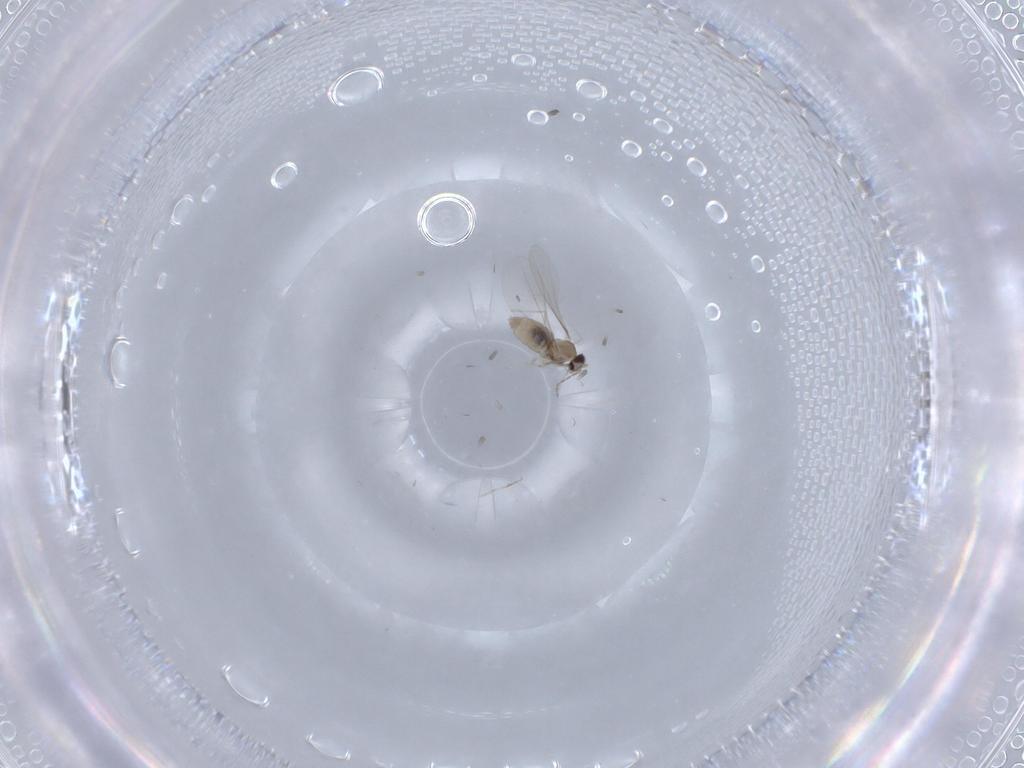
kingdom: Animalia
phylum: Arthropoda
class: Insecta
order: Diptera
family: Cecidomyiidae
